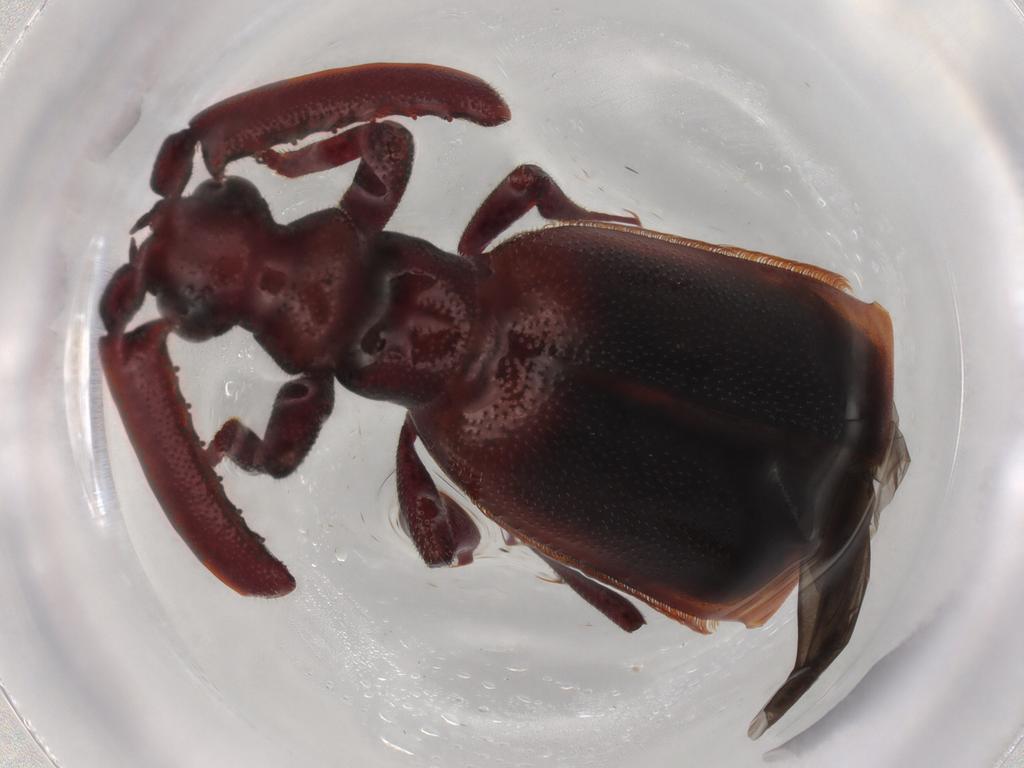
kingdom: Animalia
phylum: Arthropoda
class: Insecta
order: Coleoptera
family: Carabidae
